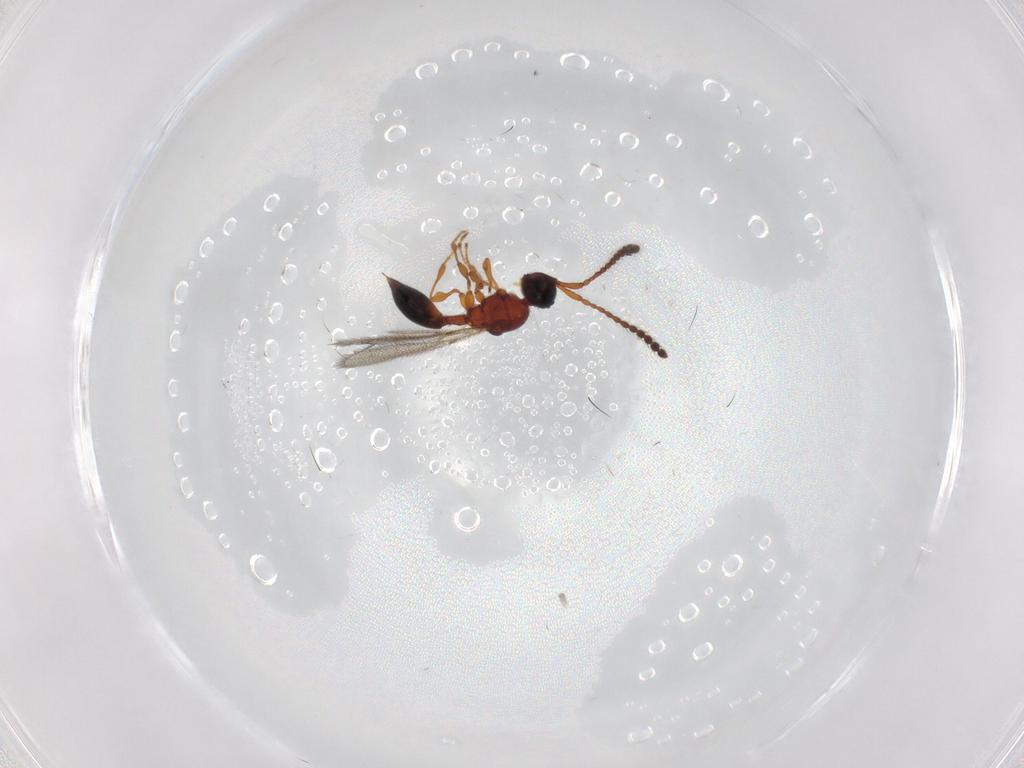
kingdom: Animalia
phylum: Arthropoda
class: Insecta
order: Hymenoptera
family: Diapriidae
